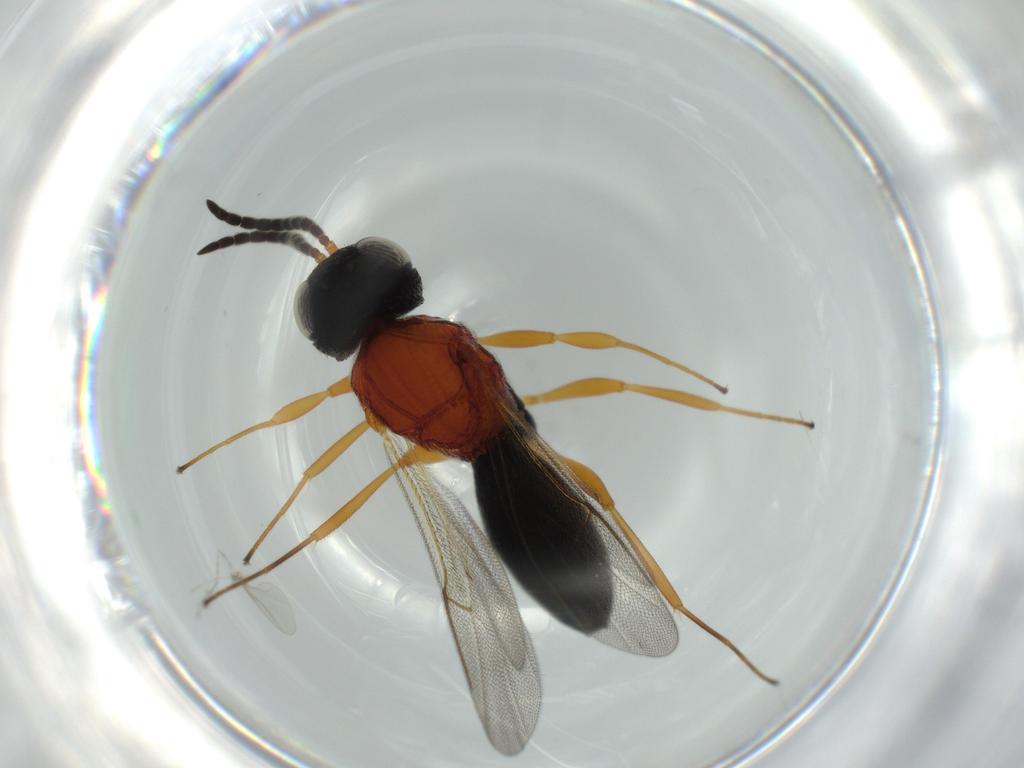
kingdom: Animalia
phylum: Arthropoda
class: Insecta
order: Hymenoptera
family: Scelionidae
